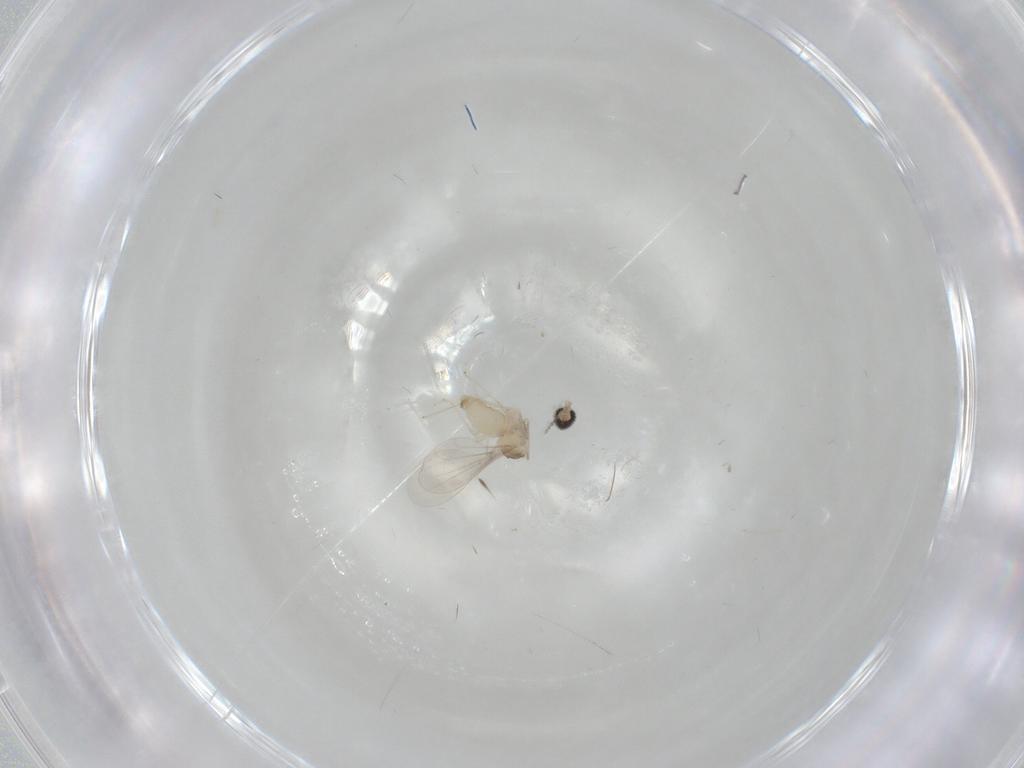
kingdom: Animalia
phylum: Arthropoda
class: Insecta
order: Diptera
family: Cecidomyiidae
